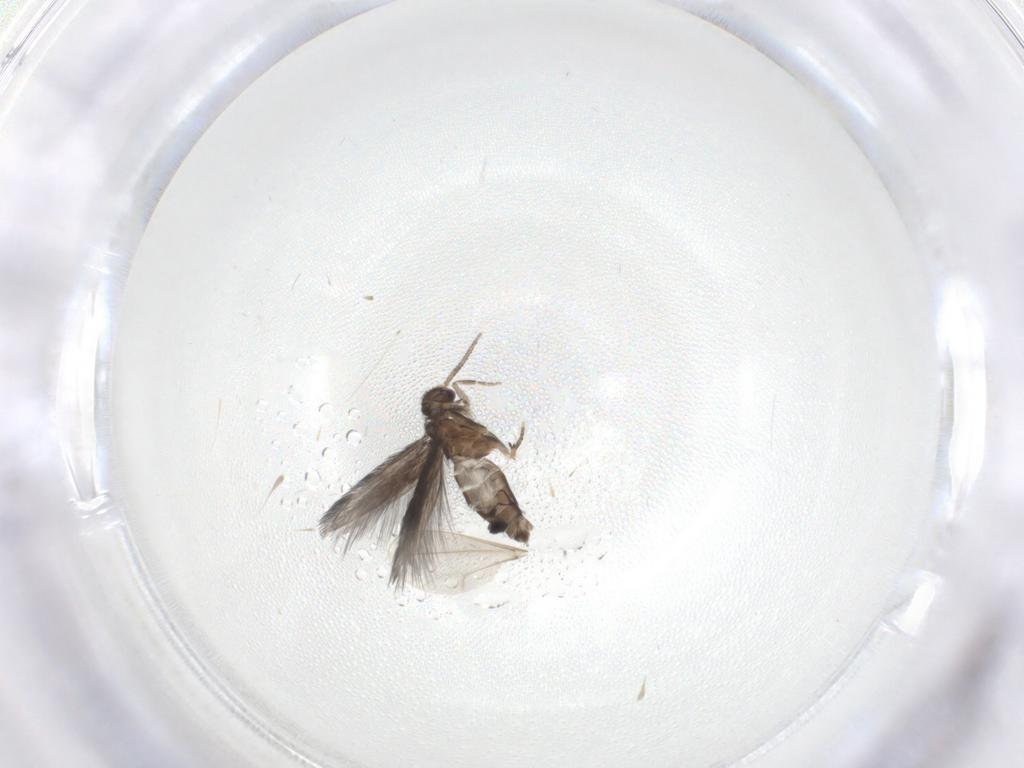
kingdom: Animalia
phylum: Arthropoda
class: Insecta
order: Trichoptera
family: Hydroptilidae
